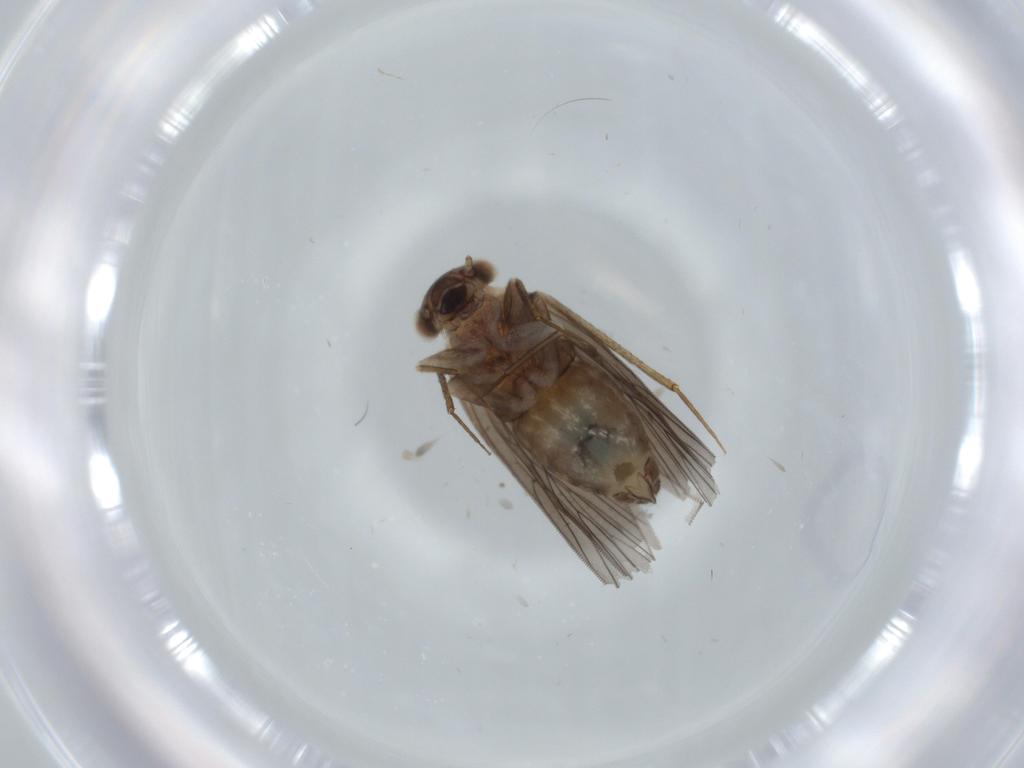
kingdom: Animalia
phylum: Arthropoda
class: Insecta
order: Psocodea
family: Lepidopsocidae
